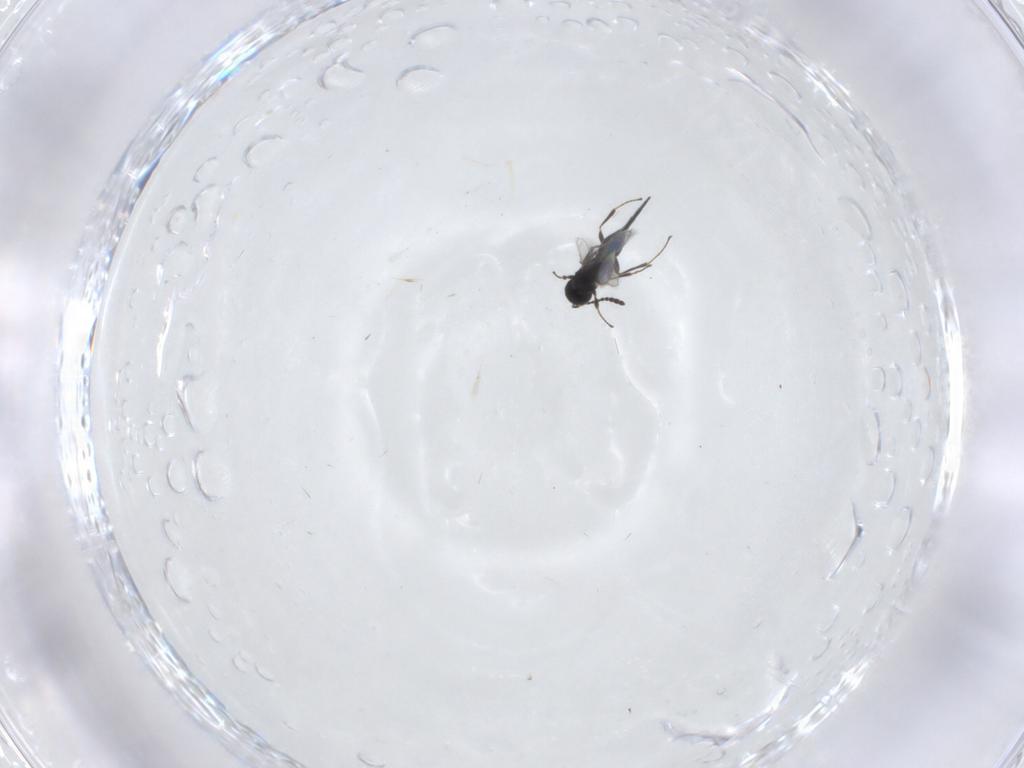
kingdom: Animalia
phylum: Arthropoda
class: Insecta
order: Hymenoptera
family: Scelionidae
